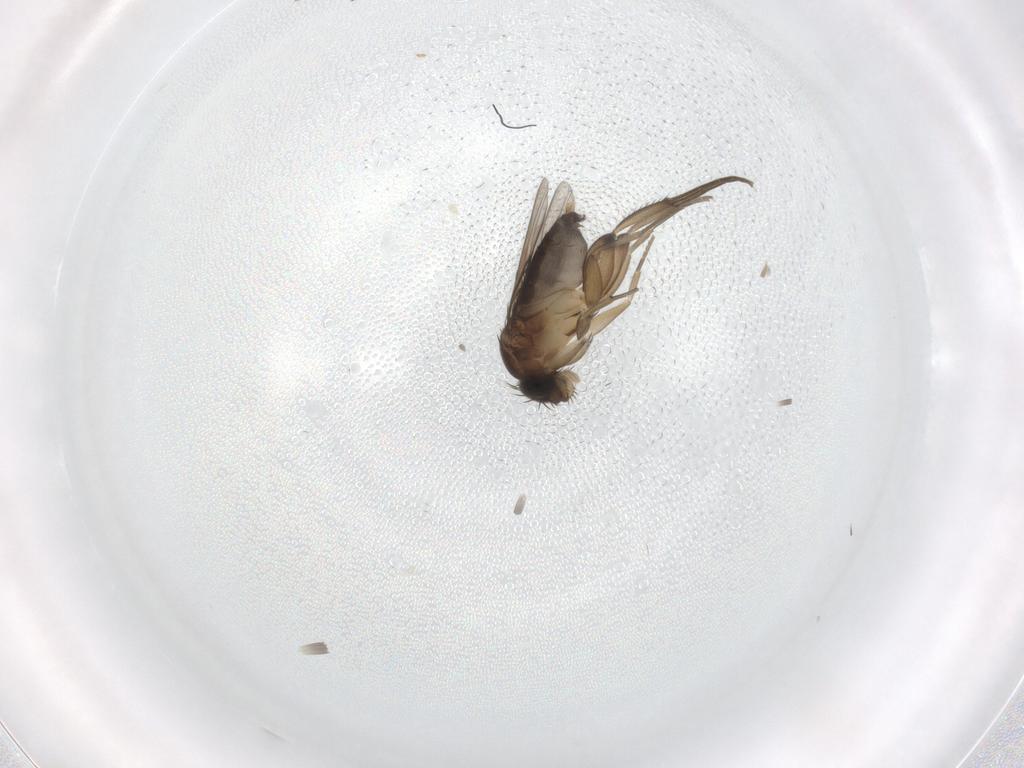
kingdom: Animalia
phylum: Arthropoda
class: Insecta
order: Diptera
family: Phoridae
